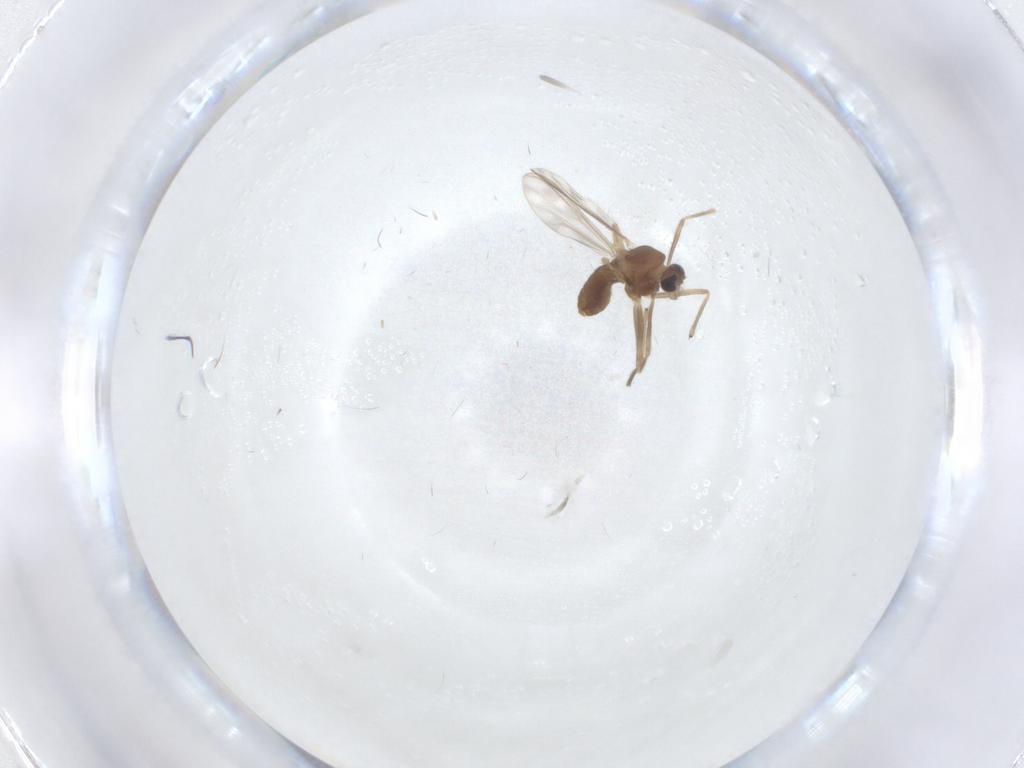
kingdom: Animalia
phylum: Arthropoda
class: Insecta
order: Diptera
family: Chironomidae
